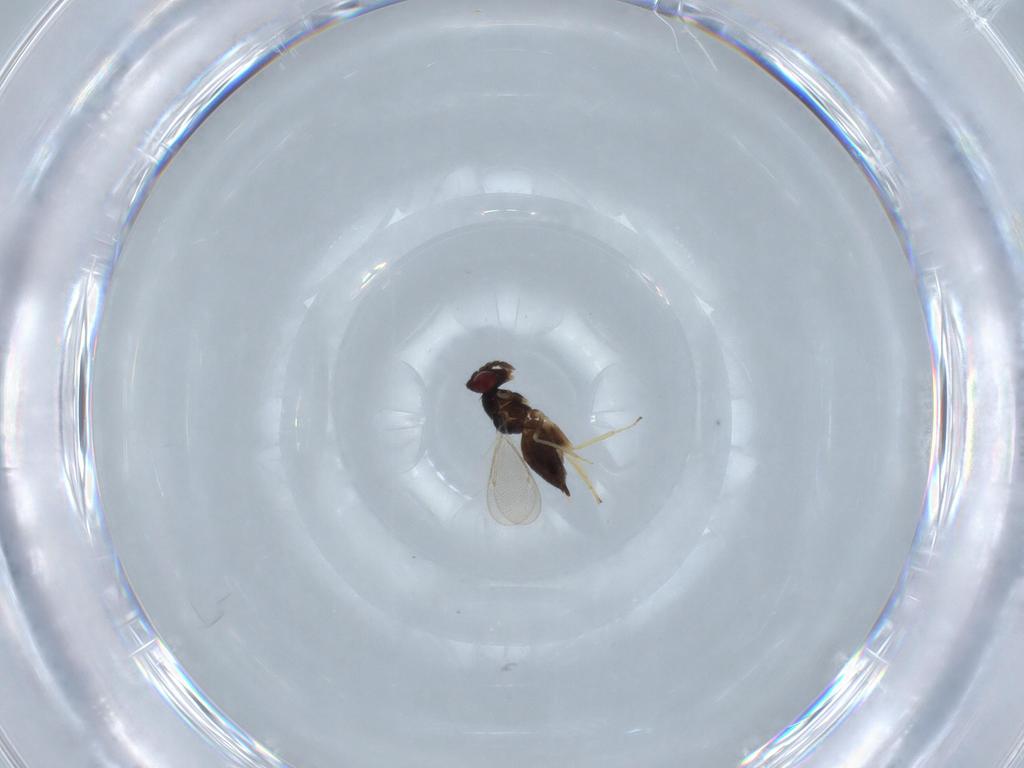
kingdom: Animalia
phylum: Arthropoda
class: Insecta
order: Hymenoptera
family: Eulophidae
